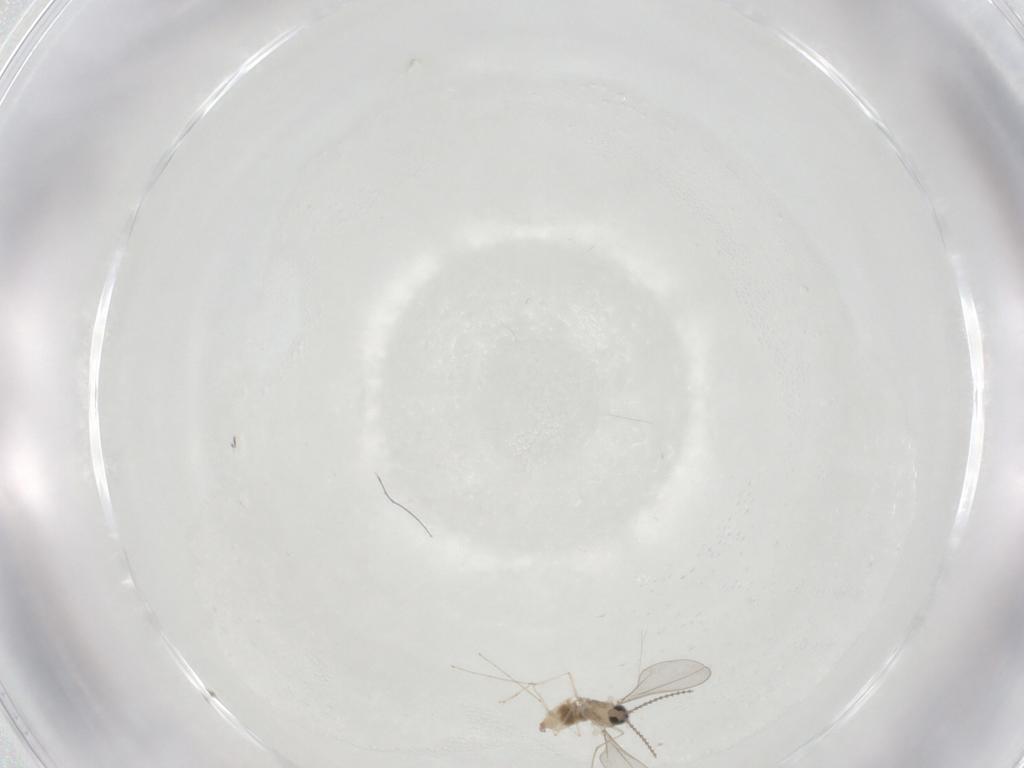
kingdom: Animalia
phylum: Arthropoda
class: Insecta
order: Diptera
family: Cecidomyiidae
